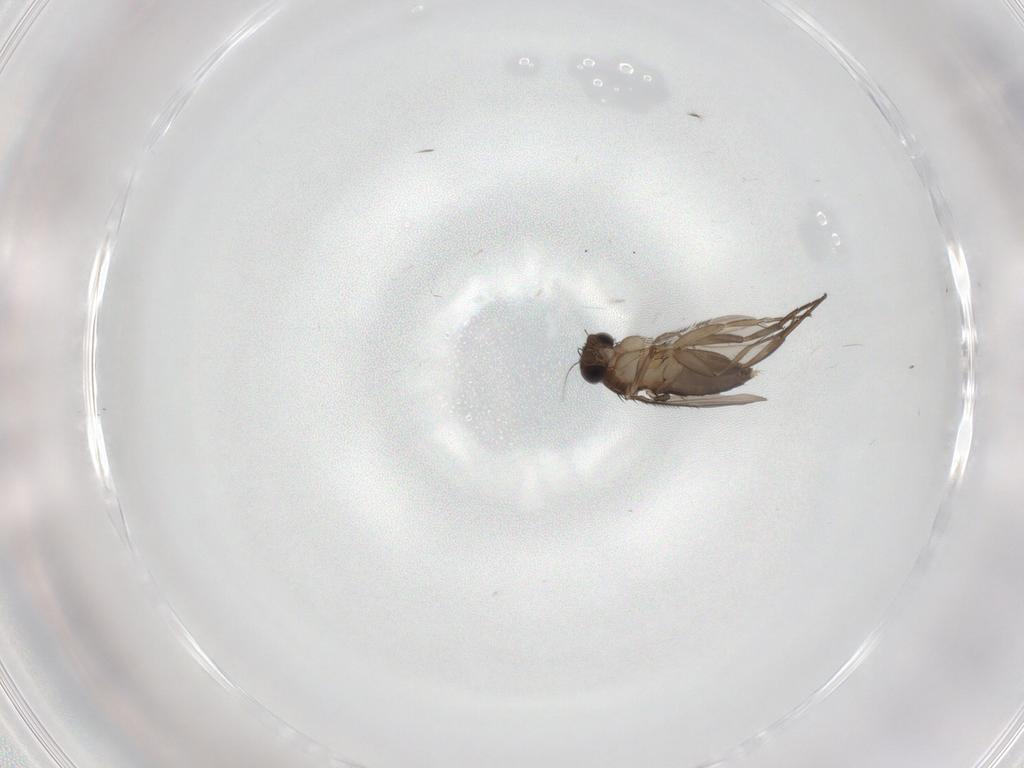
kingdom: Animalia
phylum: Arthropoda
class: Insecta
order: Diptera
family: Phoridae
